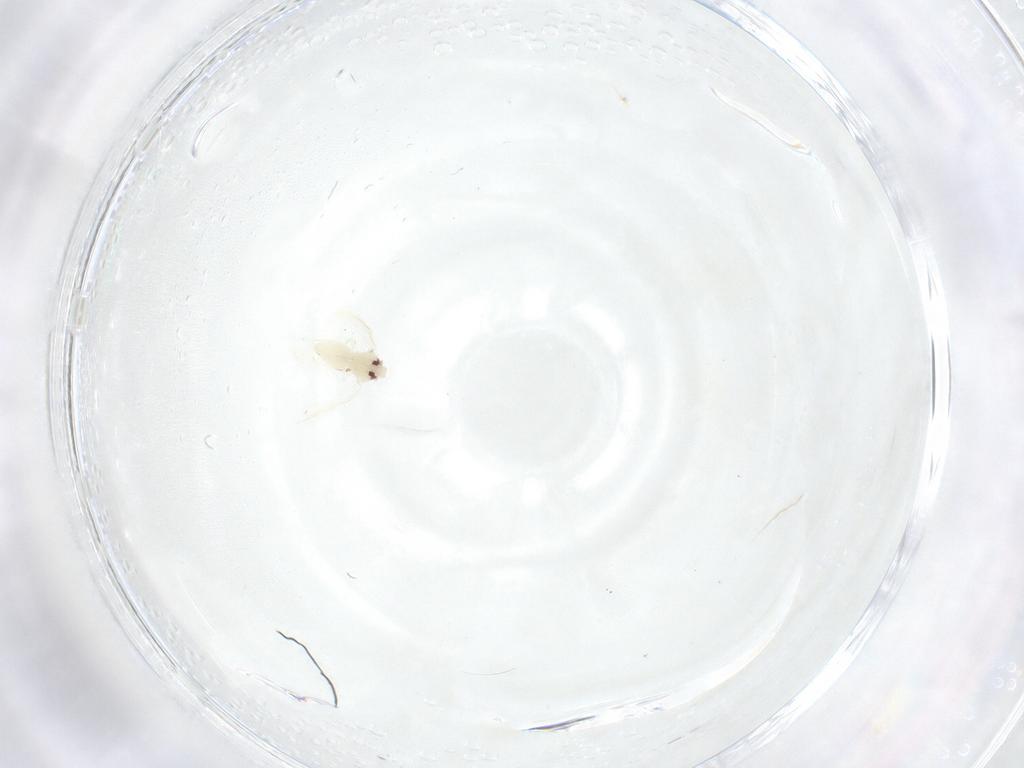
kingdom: Animalia
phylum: Arthropoda
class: Insecta
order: Hemiptera
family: Aleyrodidae
